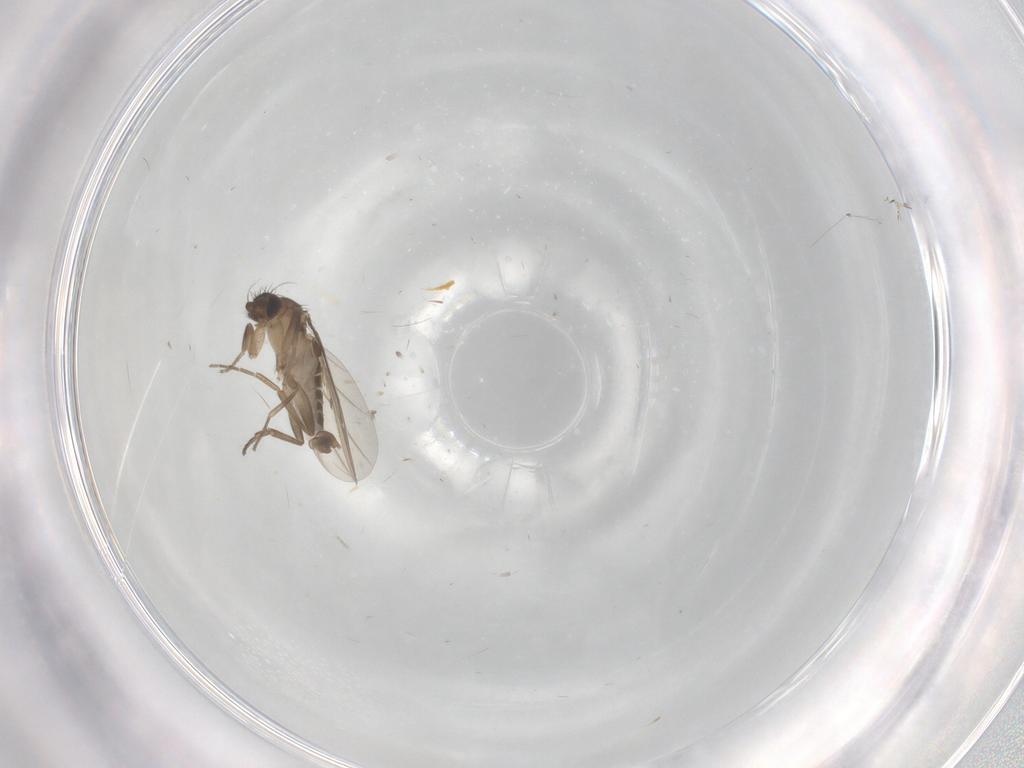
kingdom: Animalia
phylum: Arthropoda
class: Insecta
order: Diptera
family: Phoridae
